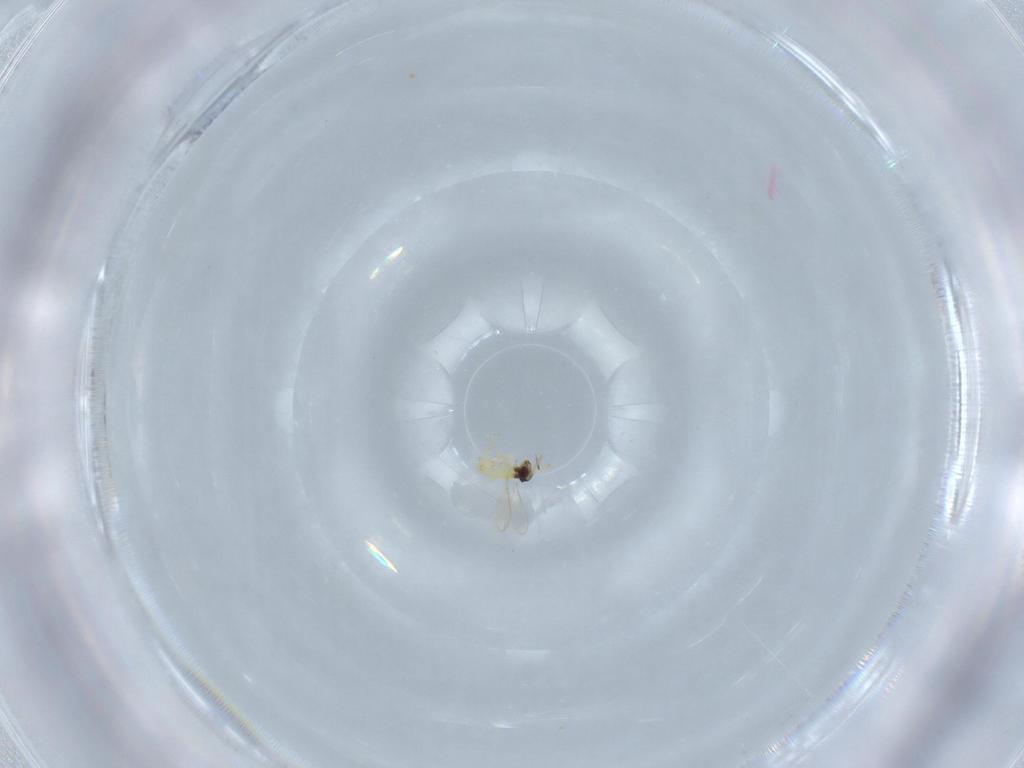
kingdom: Animalia
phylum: Arthropoda
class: Insecta
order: Hymenoptera
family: Aphelinidae
